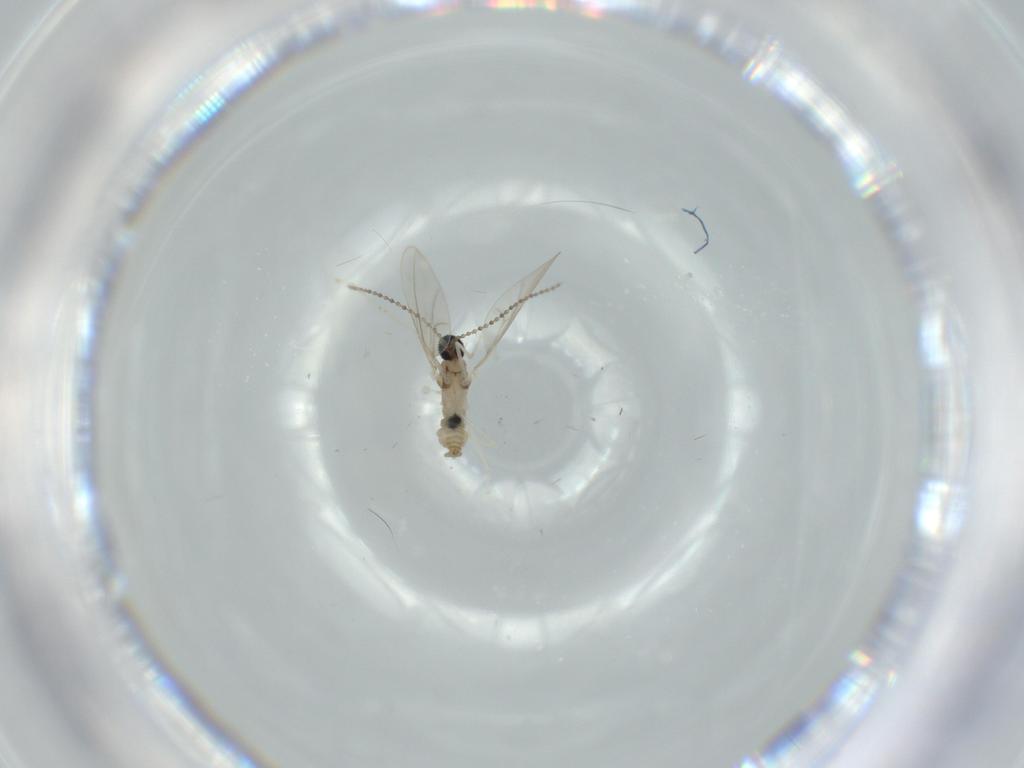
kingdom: Animalia
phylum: Arthropoda
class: Insecta
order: Diptera
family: Cecidomyiidae
